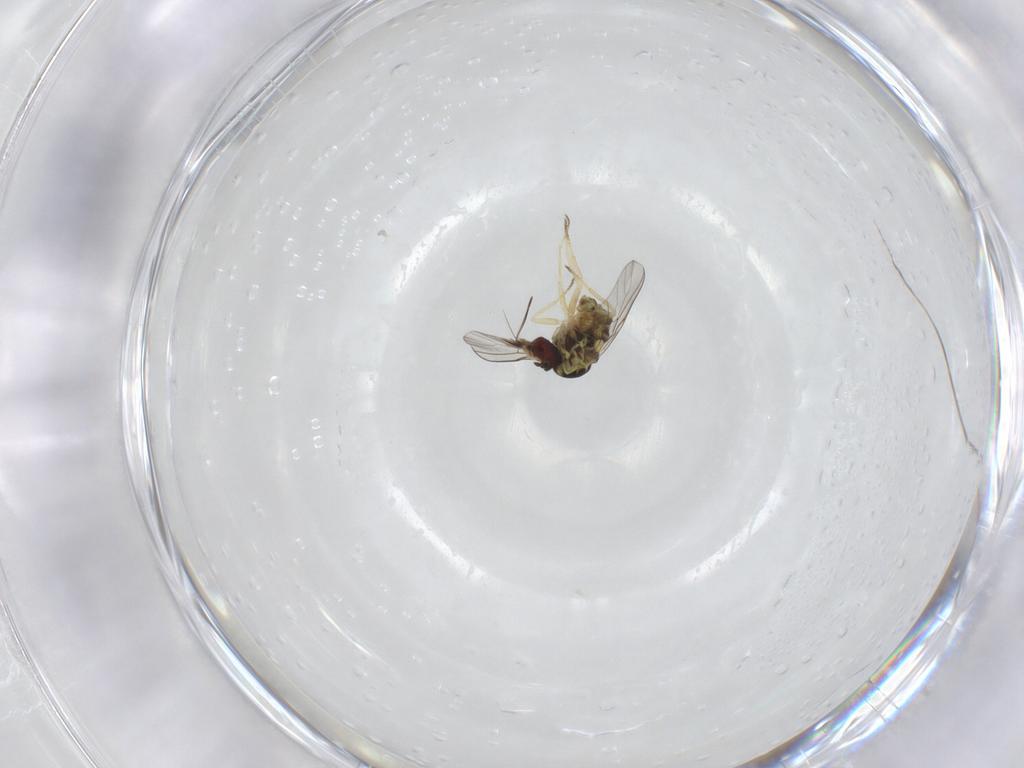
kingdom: Animalia
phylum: Arthropoda
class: Insecta
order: Diptera
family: Mythicomyiidae
